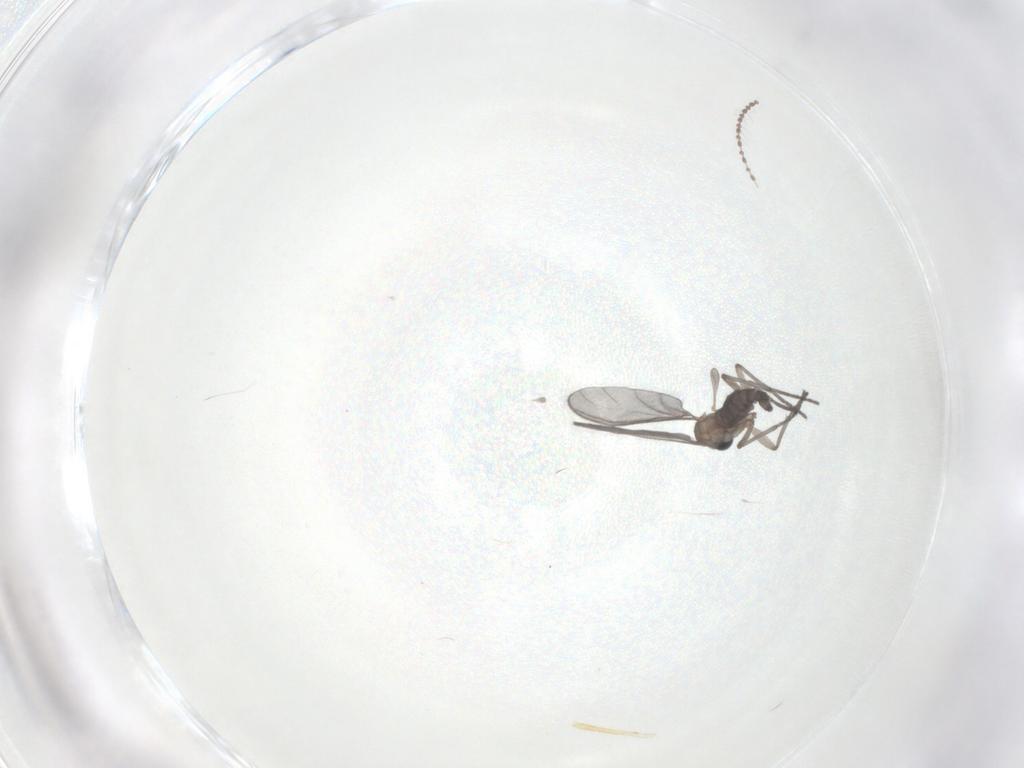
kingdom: Animalia
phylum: Arthropoda
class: Insecta
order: Diptera
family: Sciaridae
